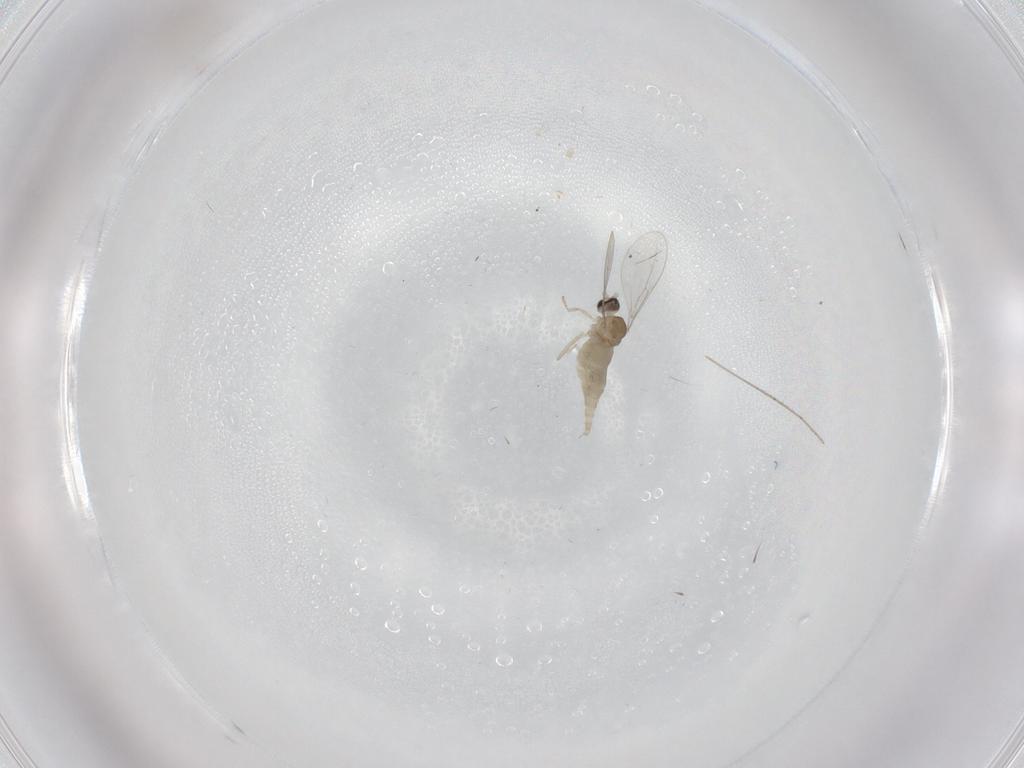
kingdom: Animalia
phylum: Arthropoda
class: Insecta
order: Diptera
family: Cecidomyiidae
